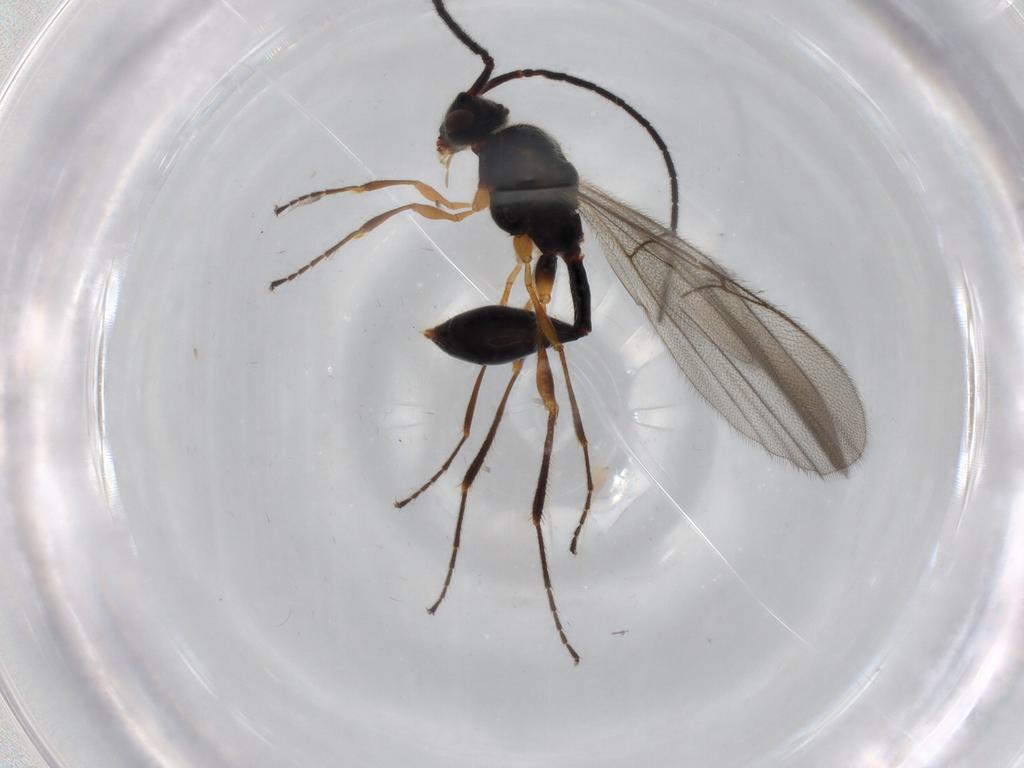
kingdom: Animalia
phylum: Arthropoda
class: Insecta
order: Hymenoptera
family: Diapriidae
